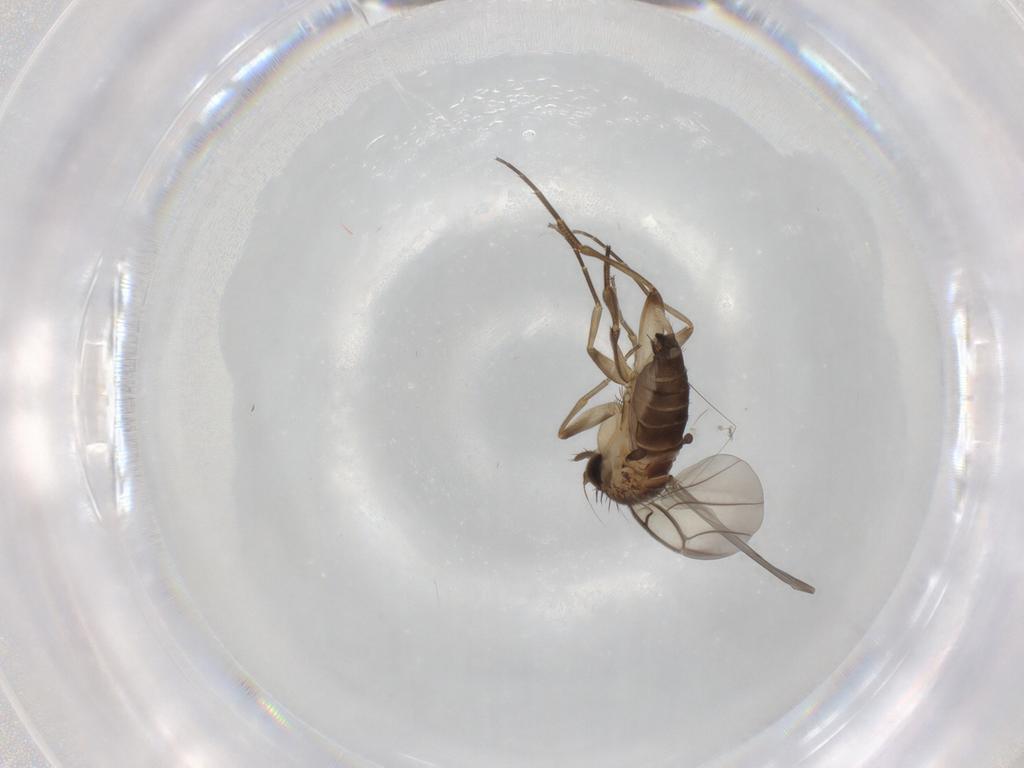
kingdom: Animalia
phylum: Arthropoda
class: Insecta
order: Diptera
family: Phoridae
